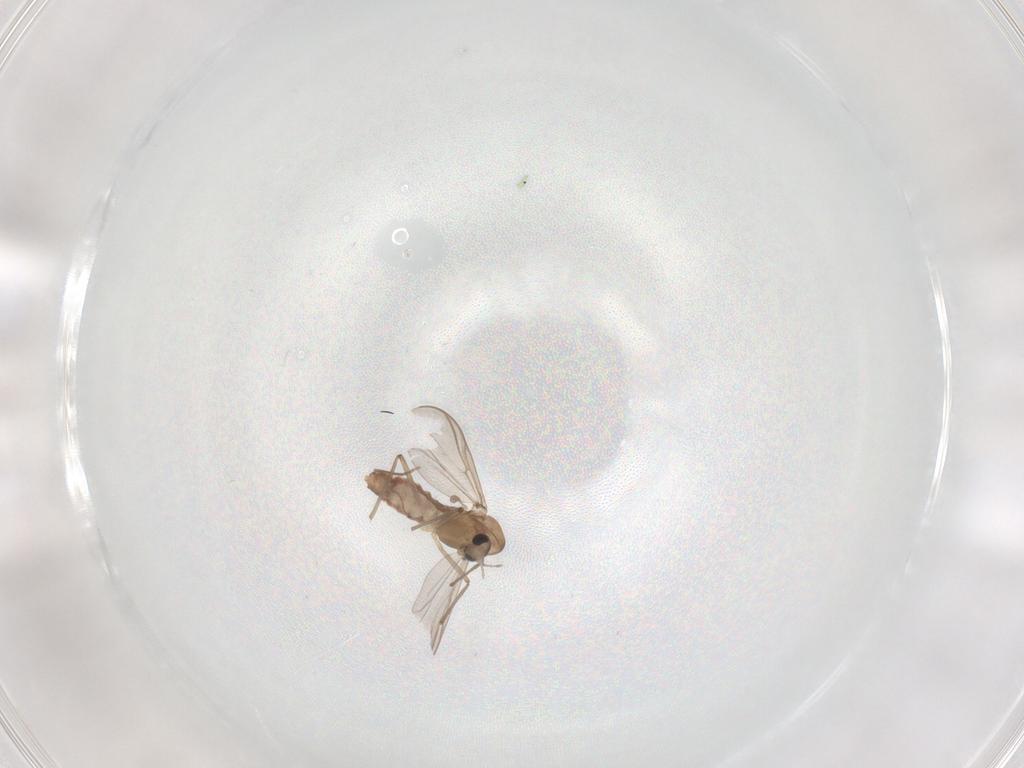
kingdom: Animalia
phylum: Arthropoda
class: Insecta
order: Diptera
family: Chironomidae
